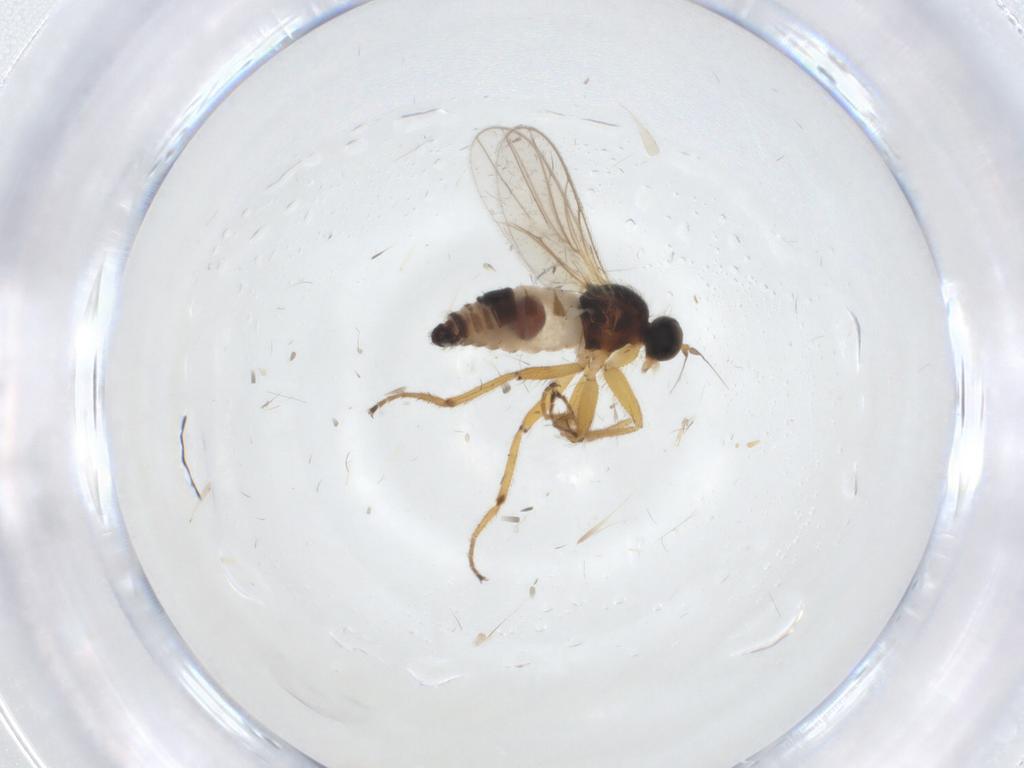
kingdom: Animalia
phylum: Arthropoda
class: Insecta
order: Diptera
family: Hybotidae
